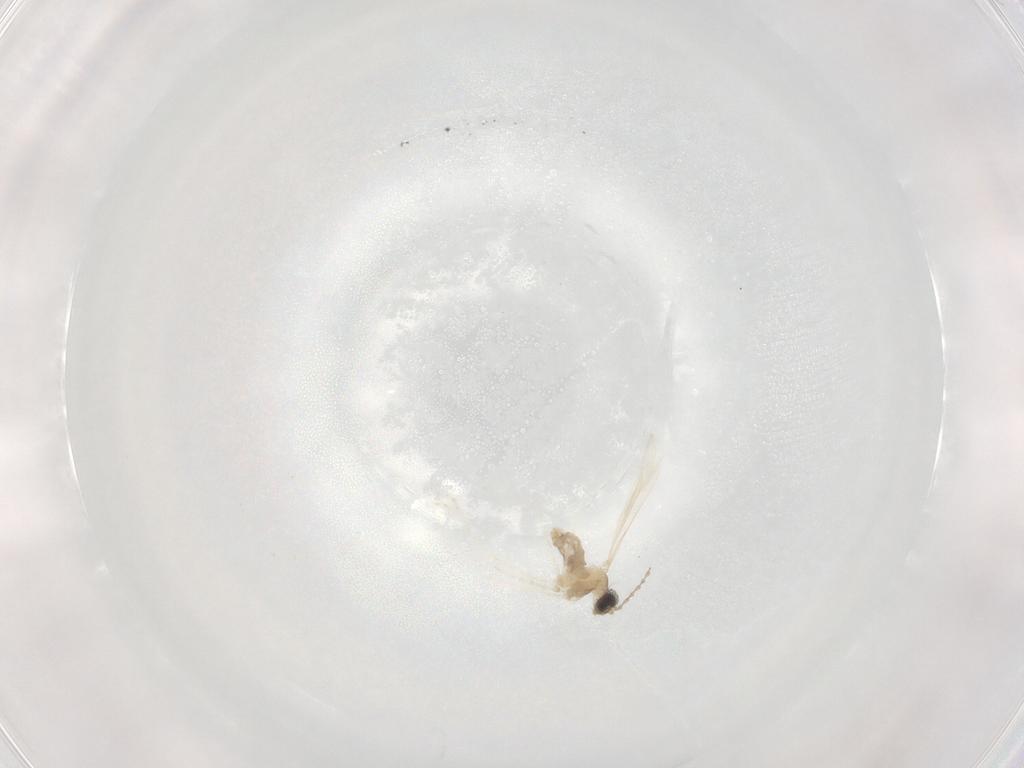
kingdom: Animalia
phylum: Arthropoda
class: Insecta
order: Diptera
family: Cecidomyiidae
